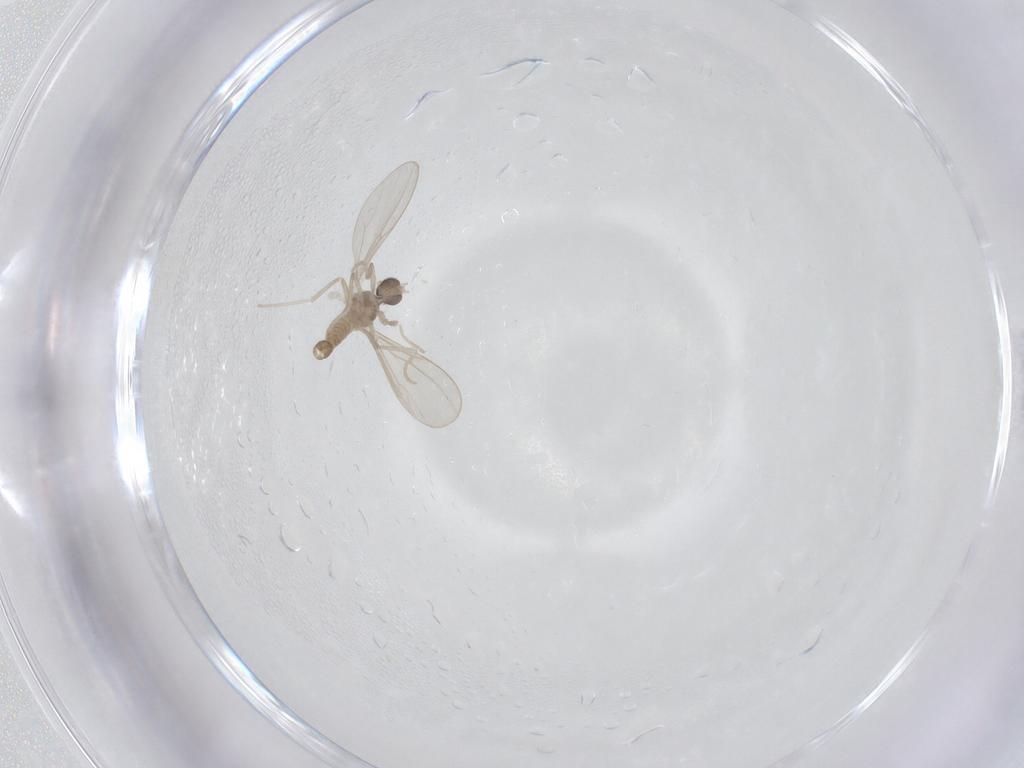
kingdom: Animalia
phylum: Arthropoda
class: Insecta
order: Diptera
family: Cecidomyiidae
